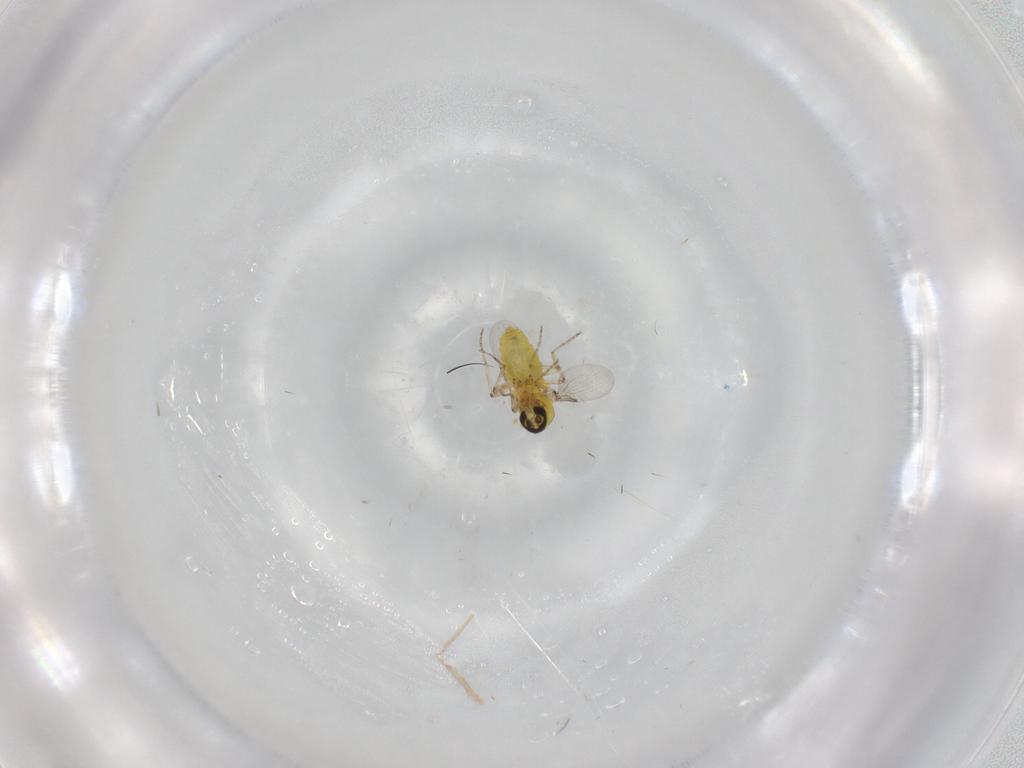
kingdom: Animalia
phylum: Arthropoda
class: Insecta
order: Diptera
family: Ceratopogonidae
